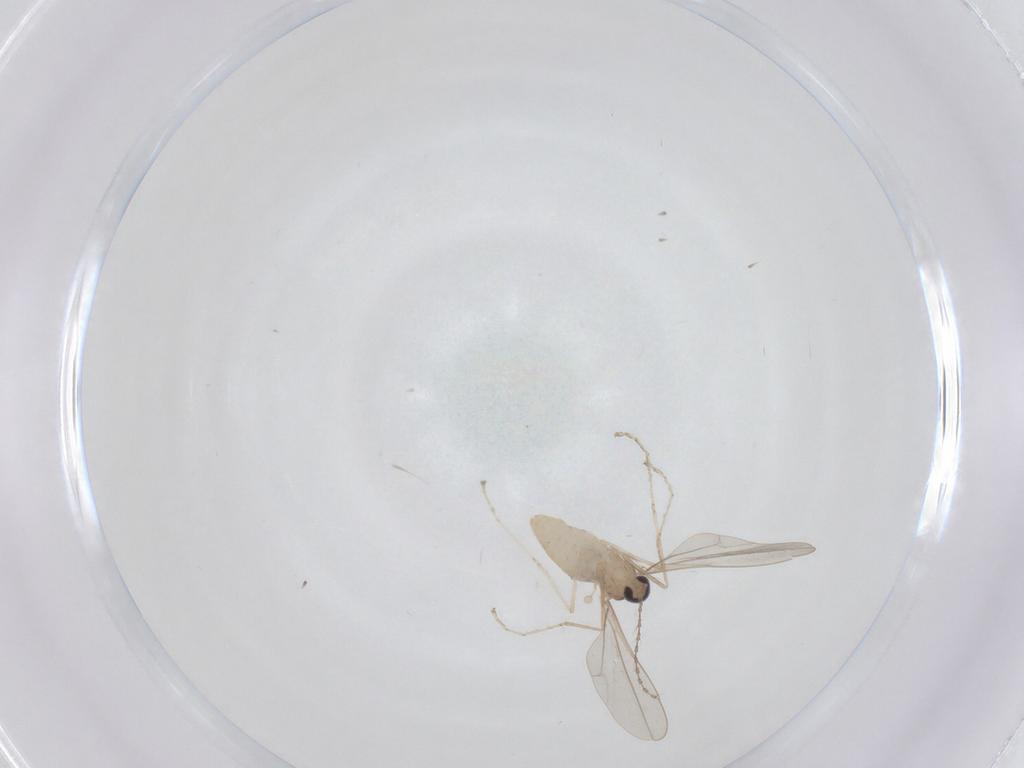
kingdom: Animalia
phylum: Arthropoda
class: Insecta
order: Diptera
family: Cecidomyiidae
